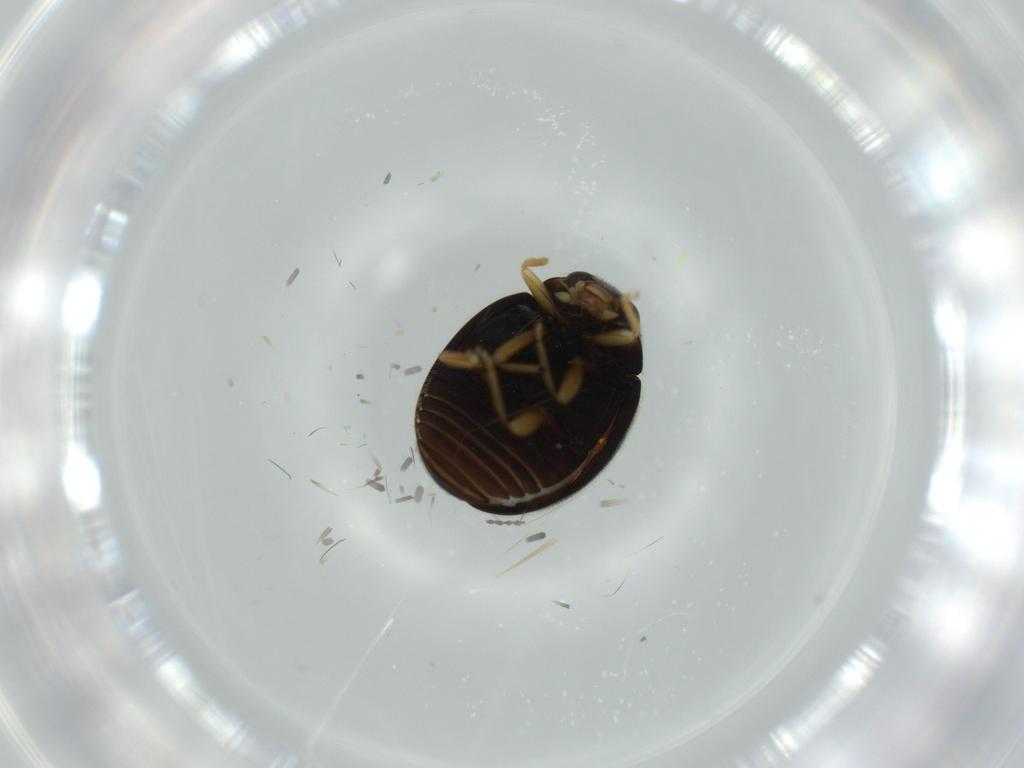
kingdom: Animalia
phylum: Arthropoda
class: Insecta
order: Coleoptera
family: Coccinellidae
